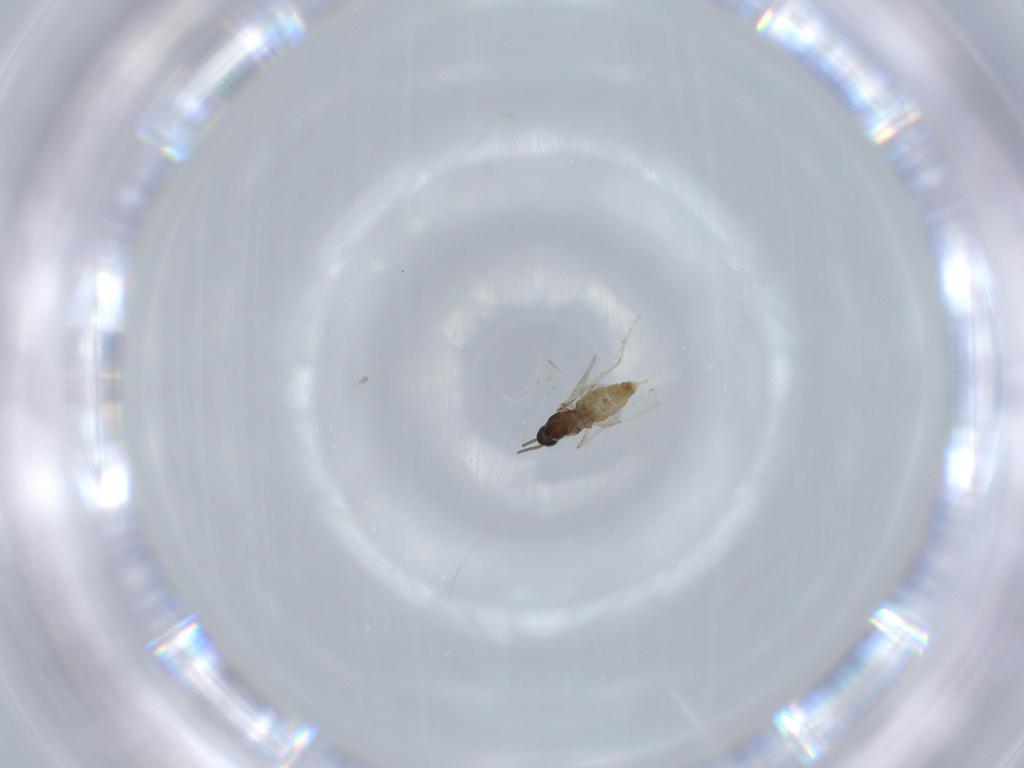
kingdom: Animalia
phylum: Arthropoda
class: Insecta
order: Diptera
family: Cecidomyiidae
